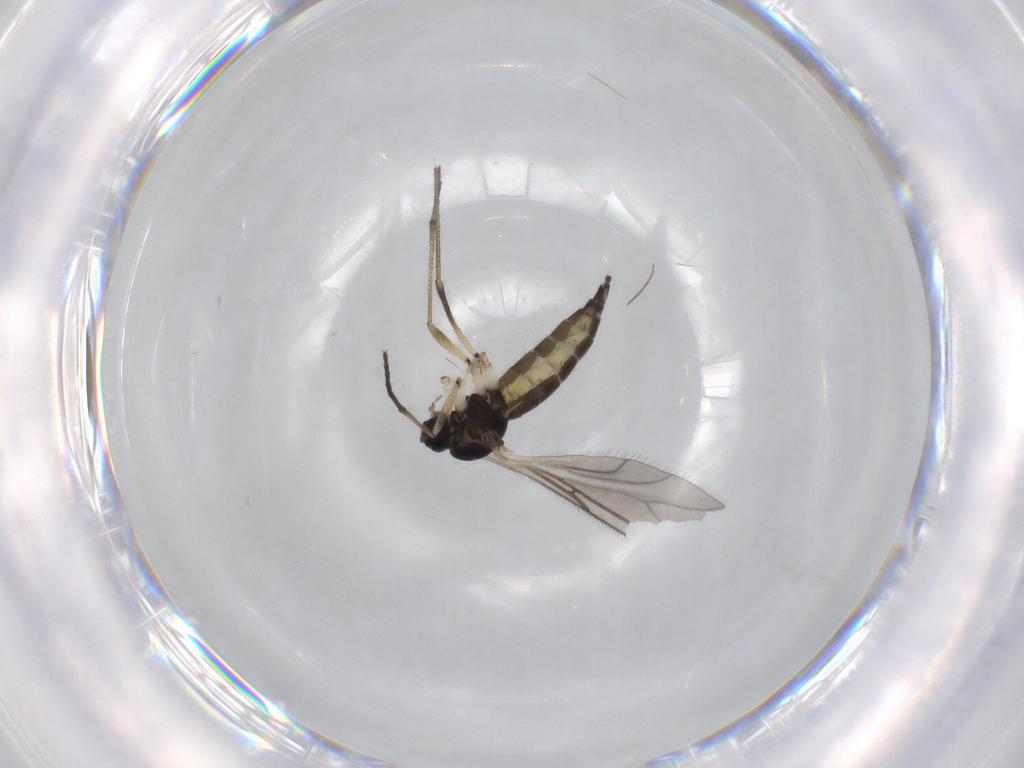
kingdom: Animalia
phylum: Arthropoda
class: Insecta
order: Diptera
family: Sciaridae
